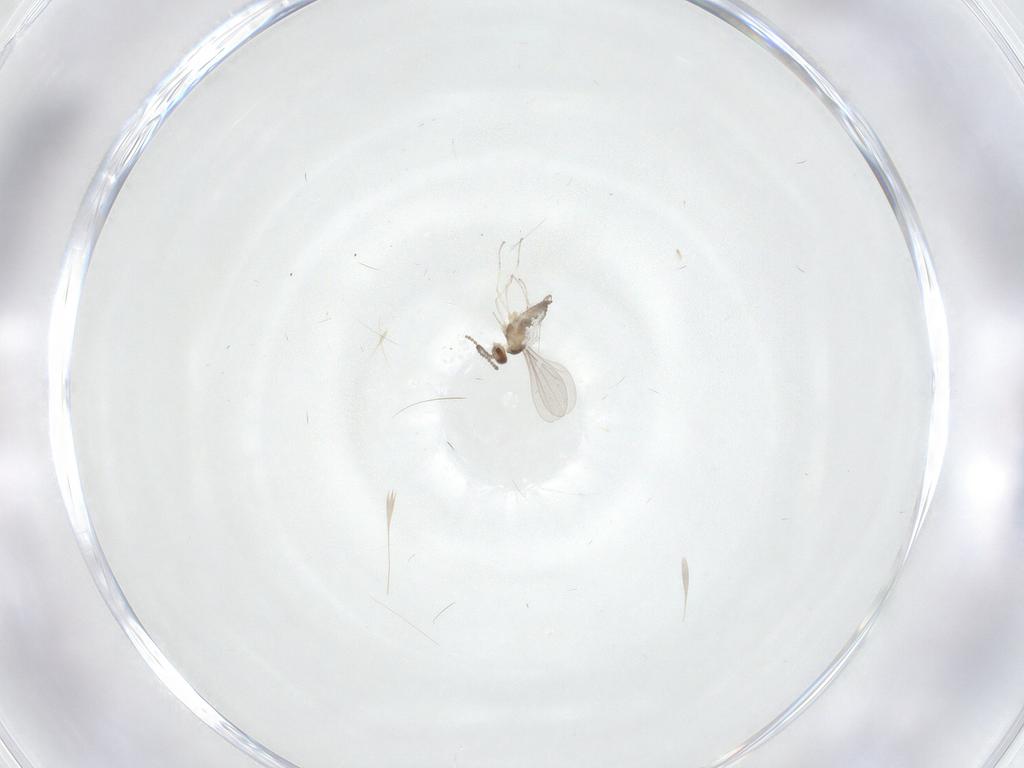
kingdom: Animalia
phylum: Arthropoda
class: Insecta
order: Diptera
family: Cecidomyiidae
